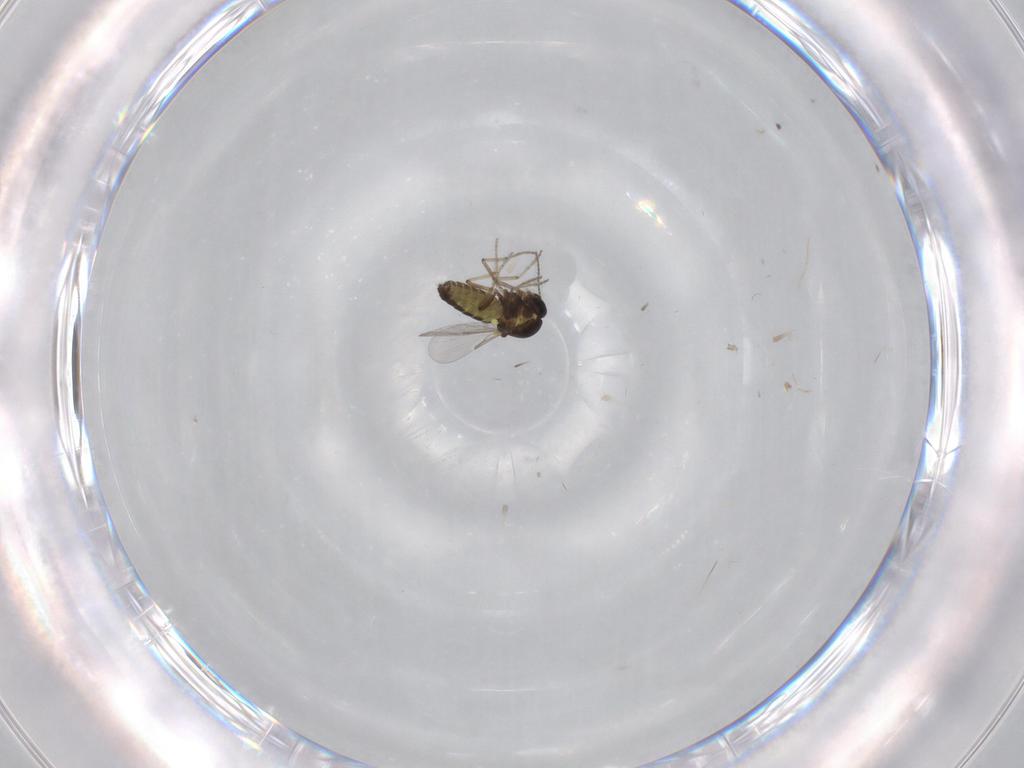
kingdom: Animalia
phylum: Arthropoda
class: Insecta
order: Diptera
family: Ceratopogonidae
